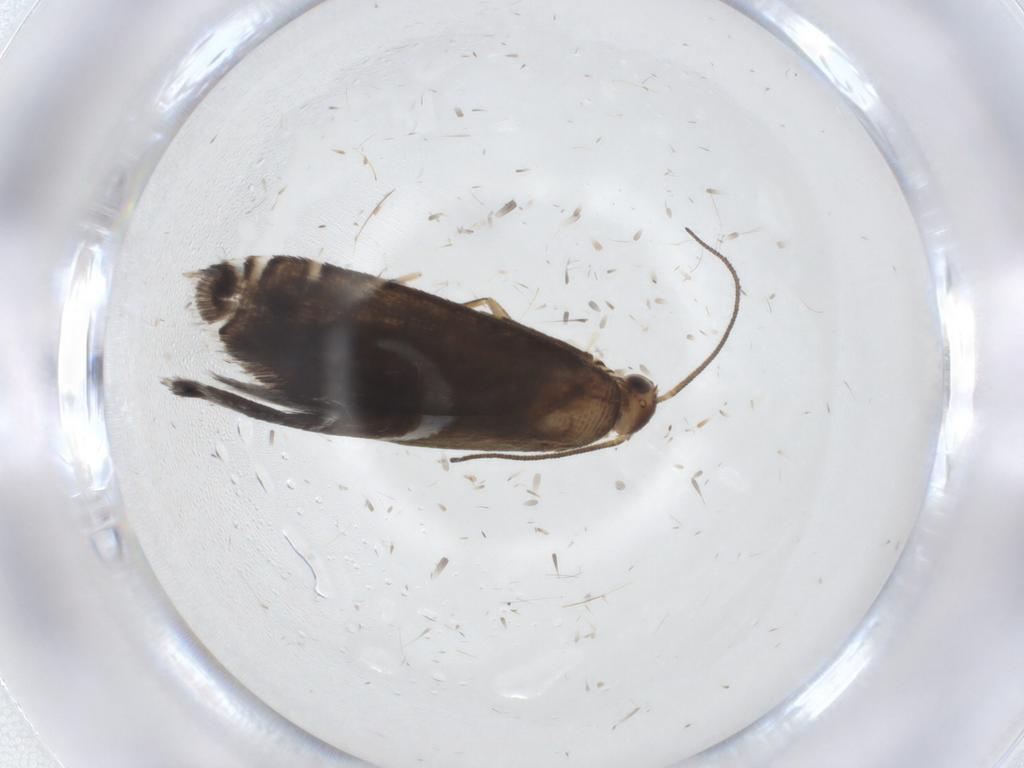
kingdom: Animalia
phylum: Arthropoda
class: Insecta
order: Lepidoptera
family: Glyphipterigidae
